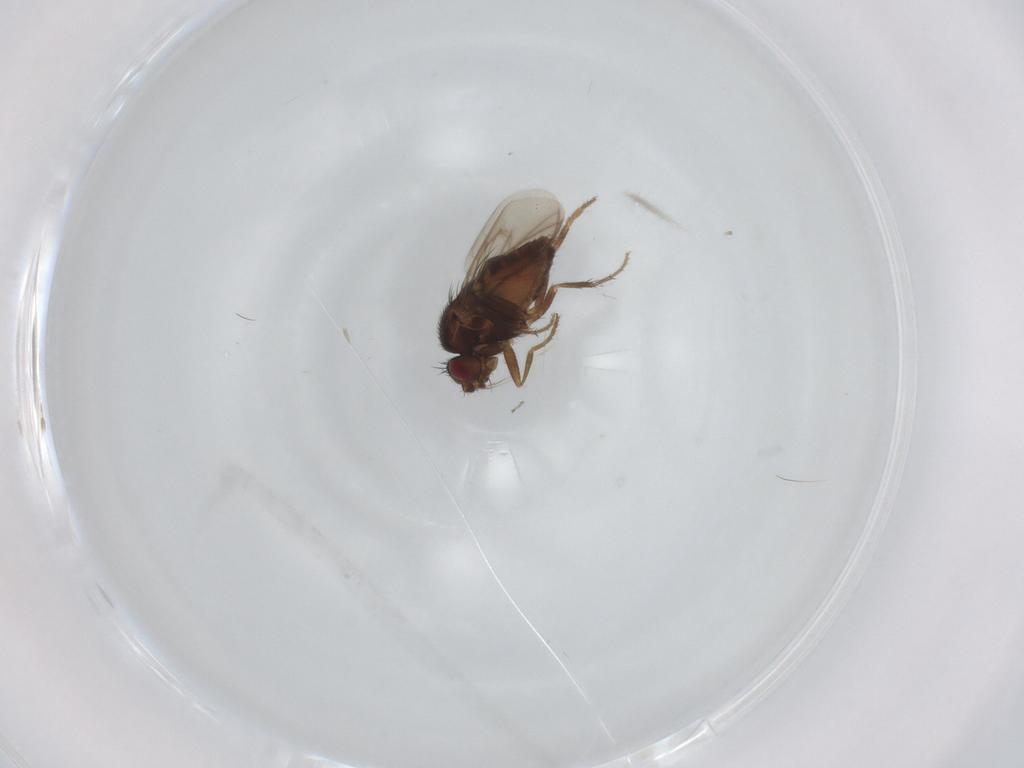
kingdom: Animalia
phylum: Arthropoda
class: Insecta
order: Diptera
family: Sphaeroceridae
